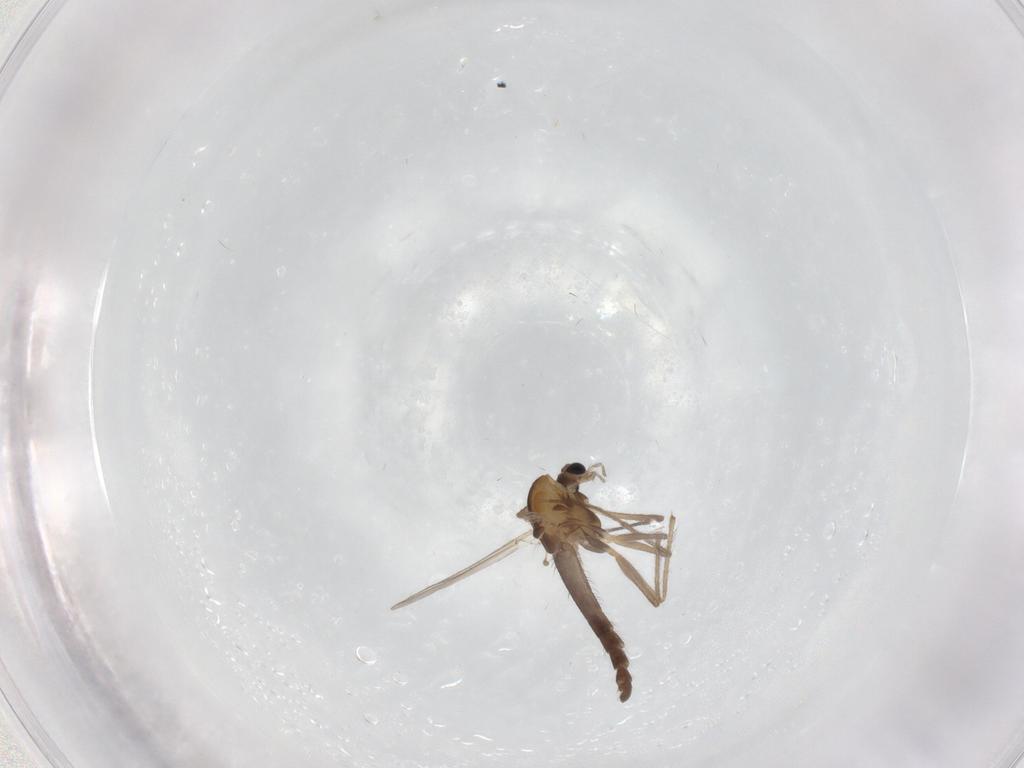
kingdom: Animalia
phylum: Arthropoda
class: Insecta
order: Diptera
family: Chironomidae
